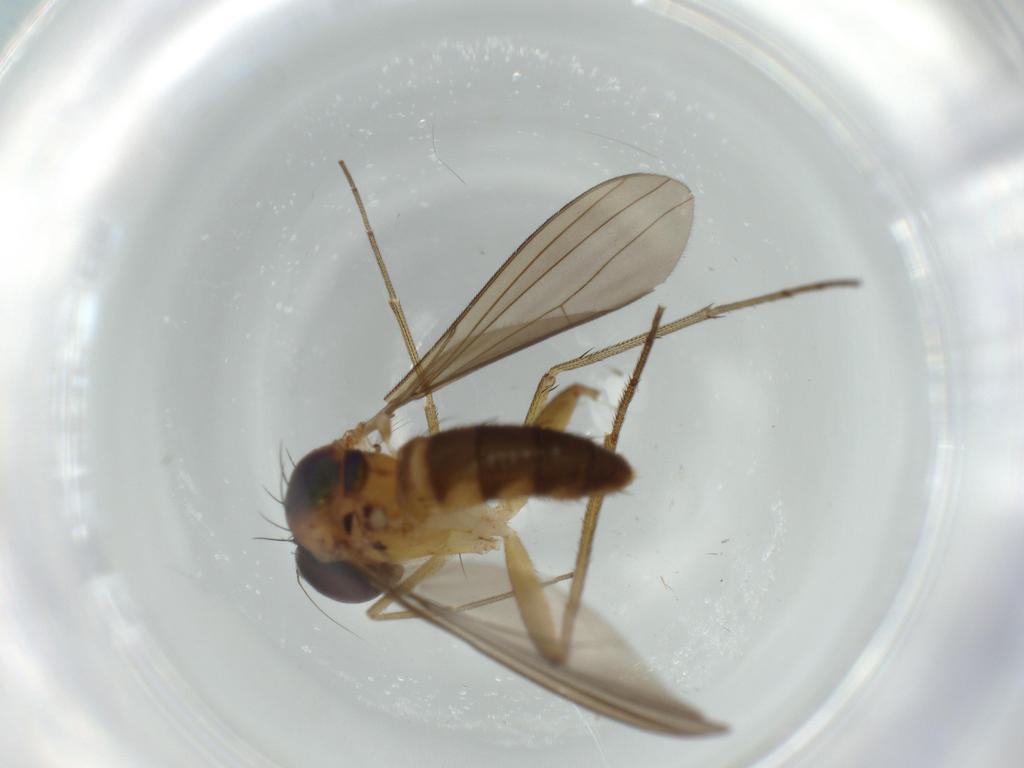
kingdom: Animalia
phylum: Arthropoda
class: Insecta
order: Diptera
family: Dolichopodidae
